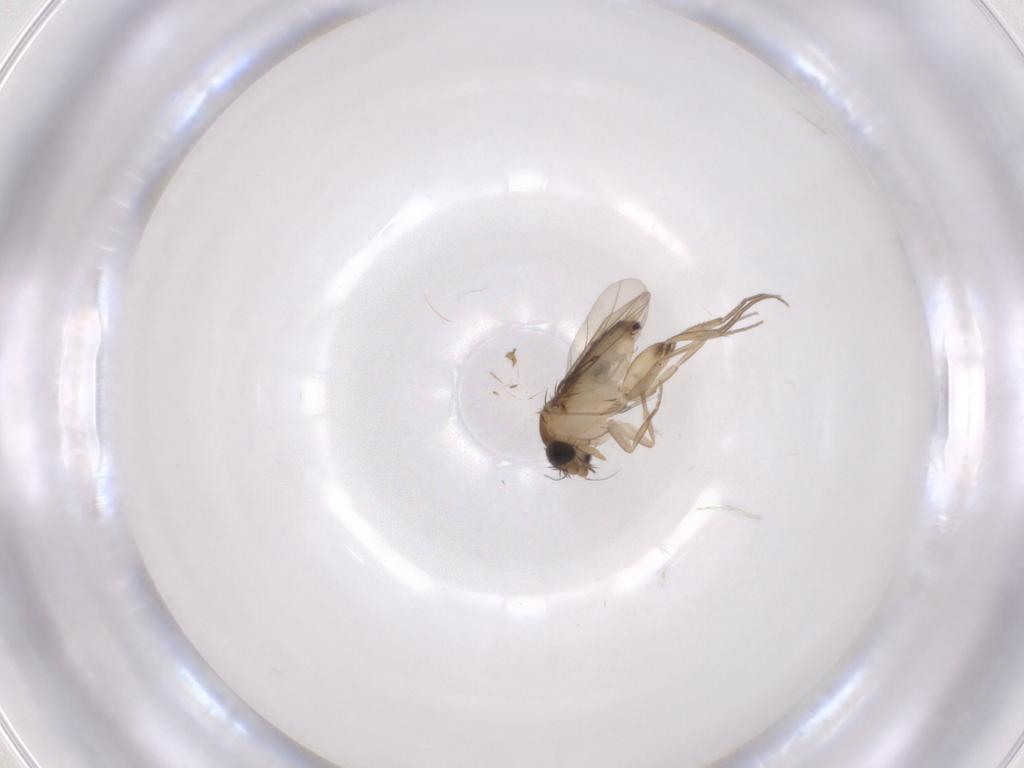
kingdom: Animalia
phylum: Arthropoda
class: Insecta
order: Diptera
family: Phoridae
